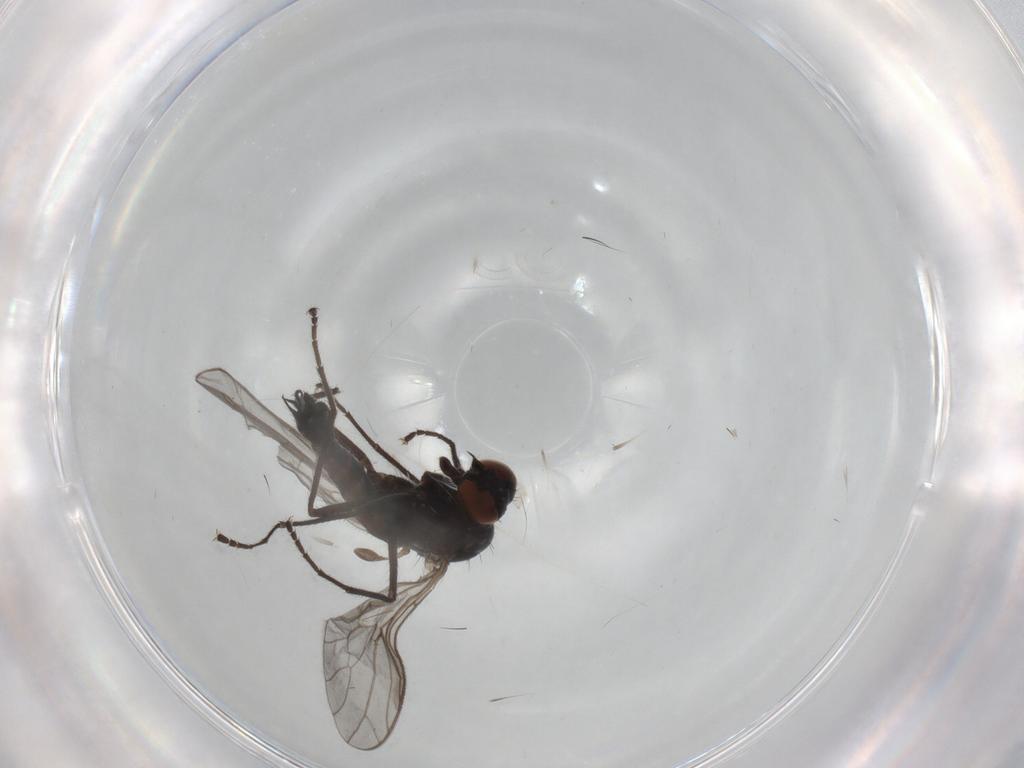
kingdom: Animalia
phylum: Arthropoda
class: Insecta
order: Diptera
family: Empididae
